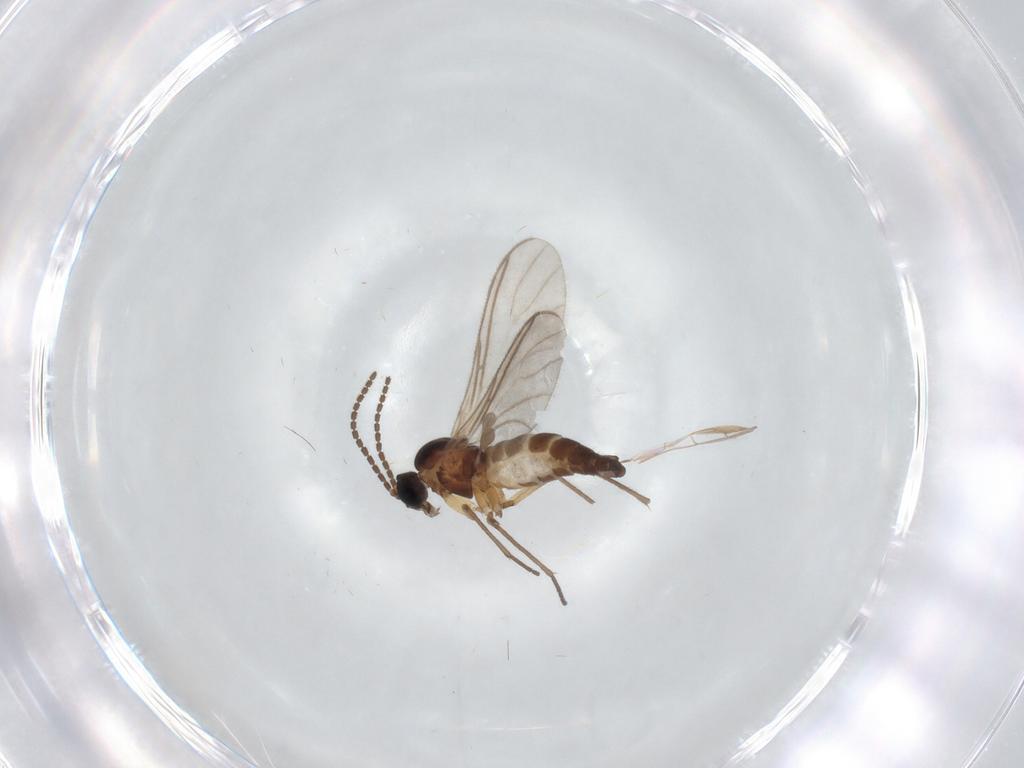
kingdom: Animalia
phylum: Arthropoda
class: Insecta
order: Diptera
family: Sciaridae
